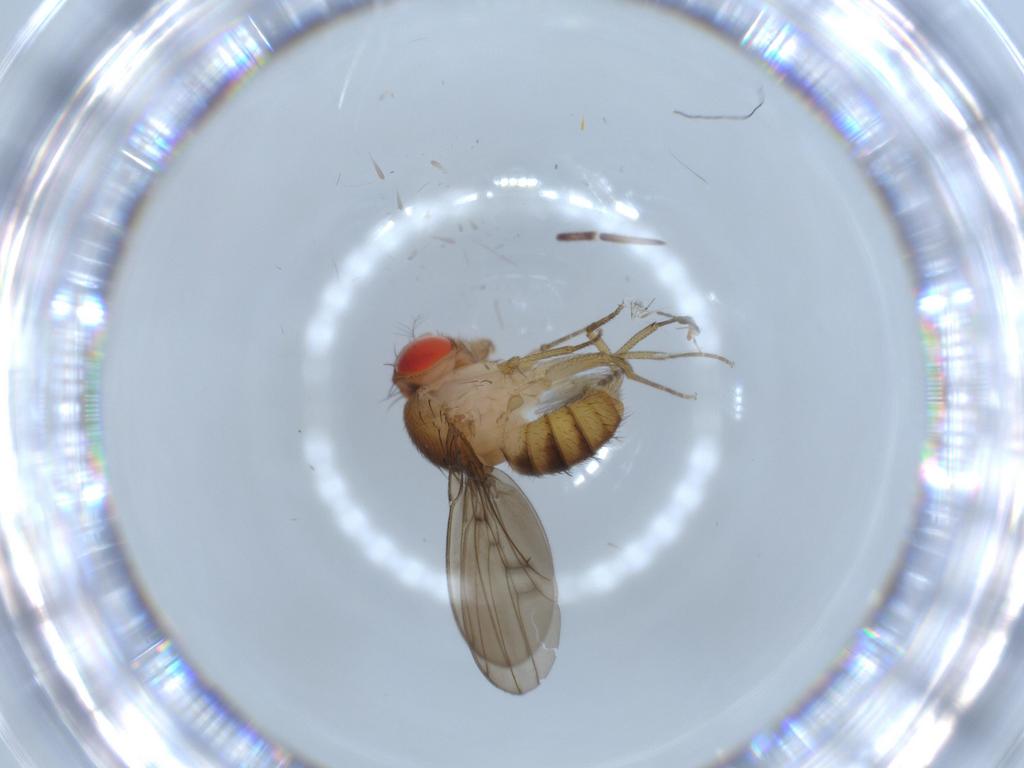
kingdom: Animalia
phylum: Arthropoda
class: Insecta
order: Diptera
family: Drosophilidae
